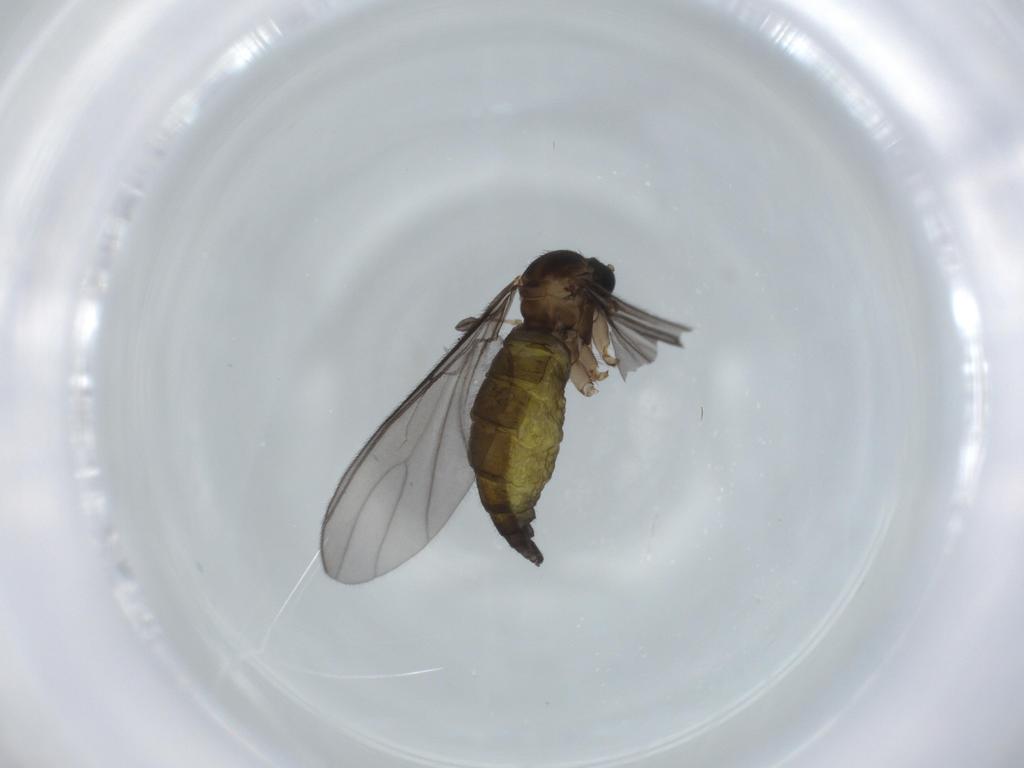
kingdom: Animalia
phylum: Arthropoda
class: Insecta
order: Diptera
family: Sciaridae
